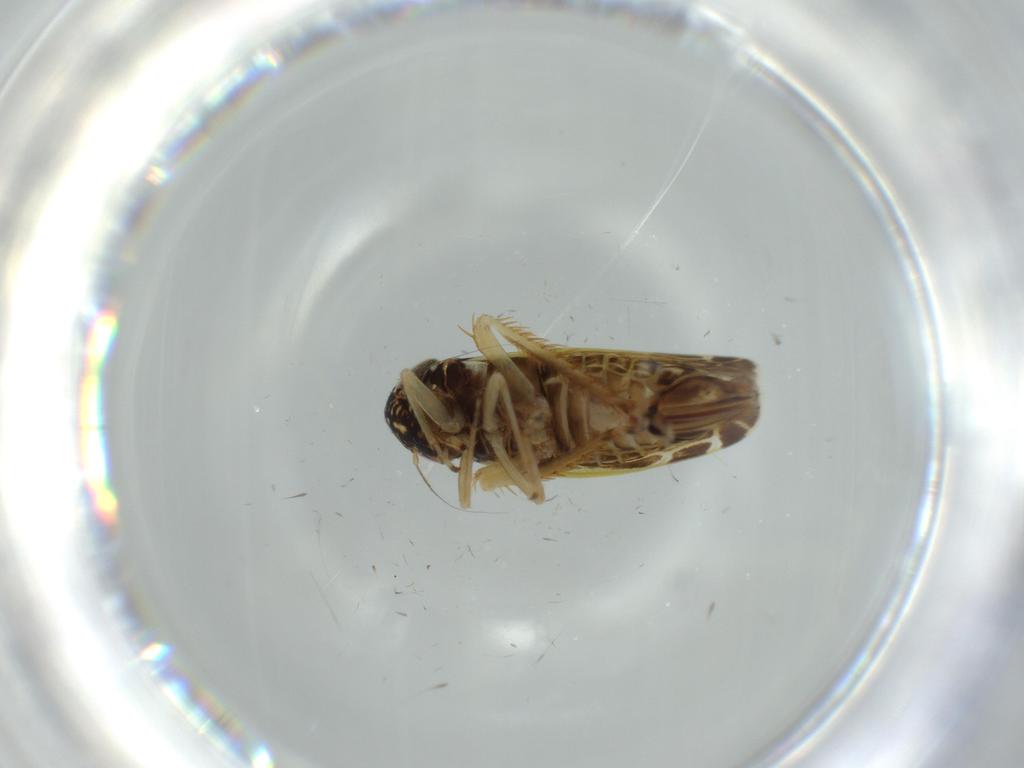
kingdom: Animalia
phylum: Arthropoda
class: Insecta
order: Hemiptera
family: Cicadellidae
